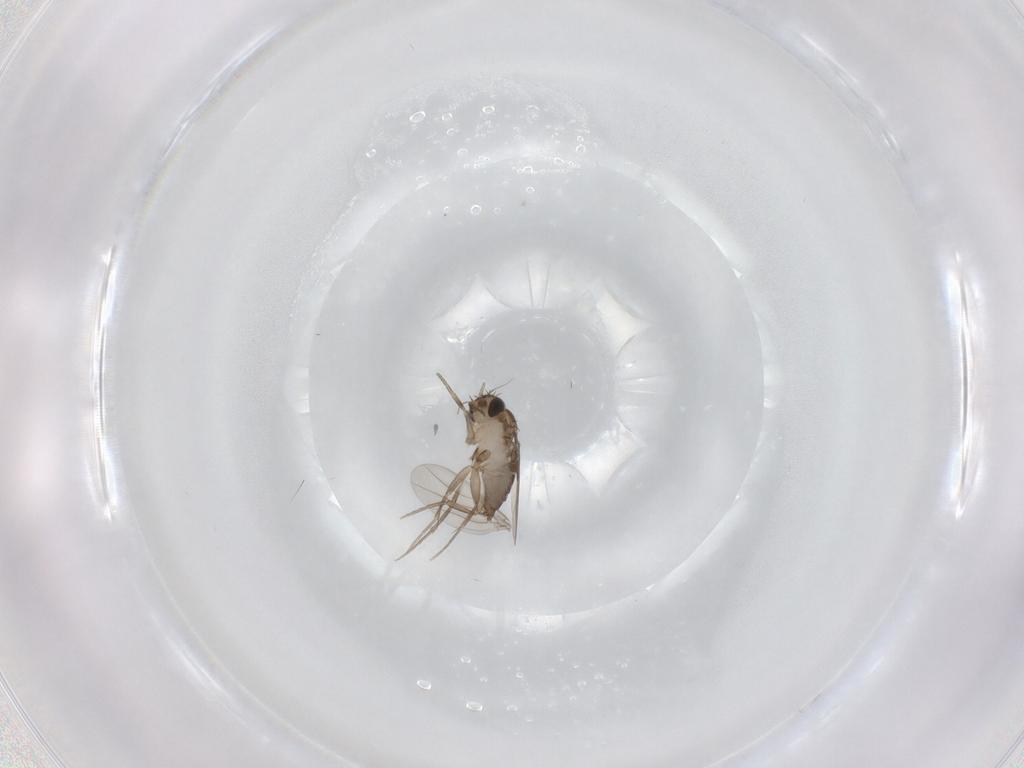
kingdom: Animalia
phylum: Arthropoda
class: Insecta
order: Diptera
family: Phoridae
